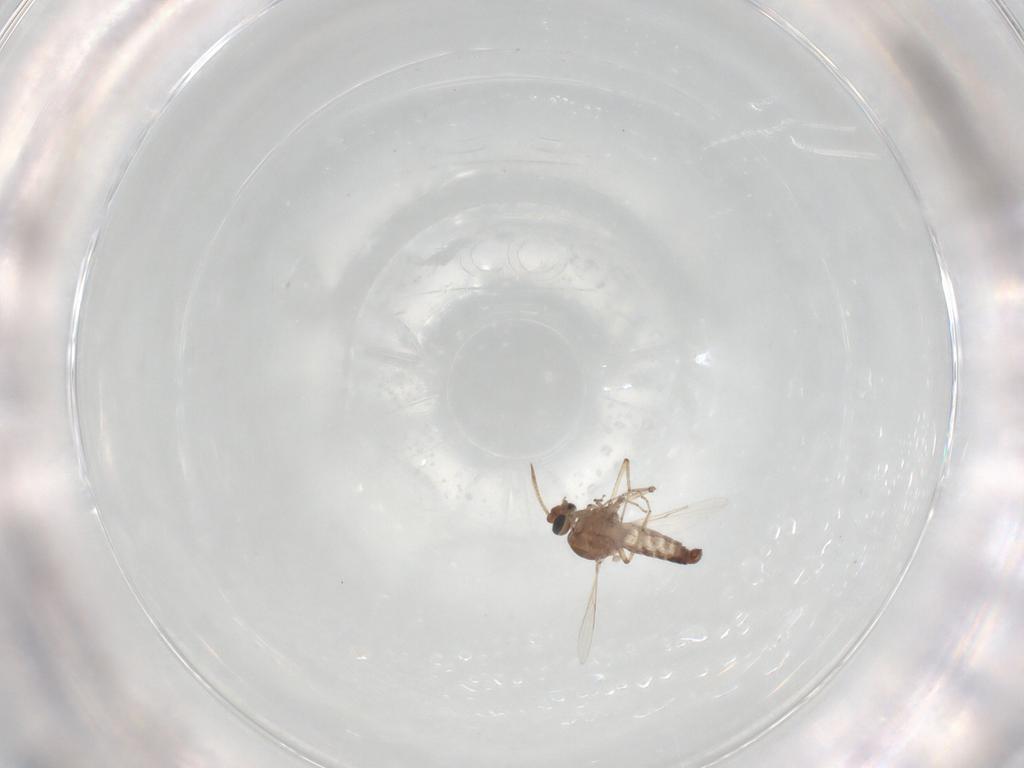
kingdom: Animalia
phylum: Arthropoda
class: Insecta
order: Diptera
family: Ceratopogonidae
